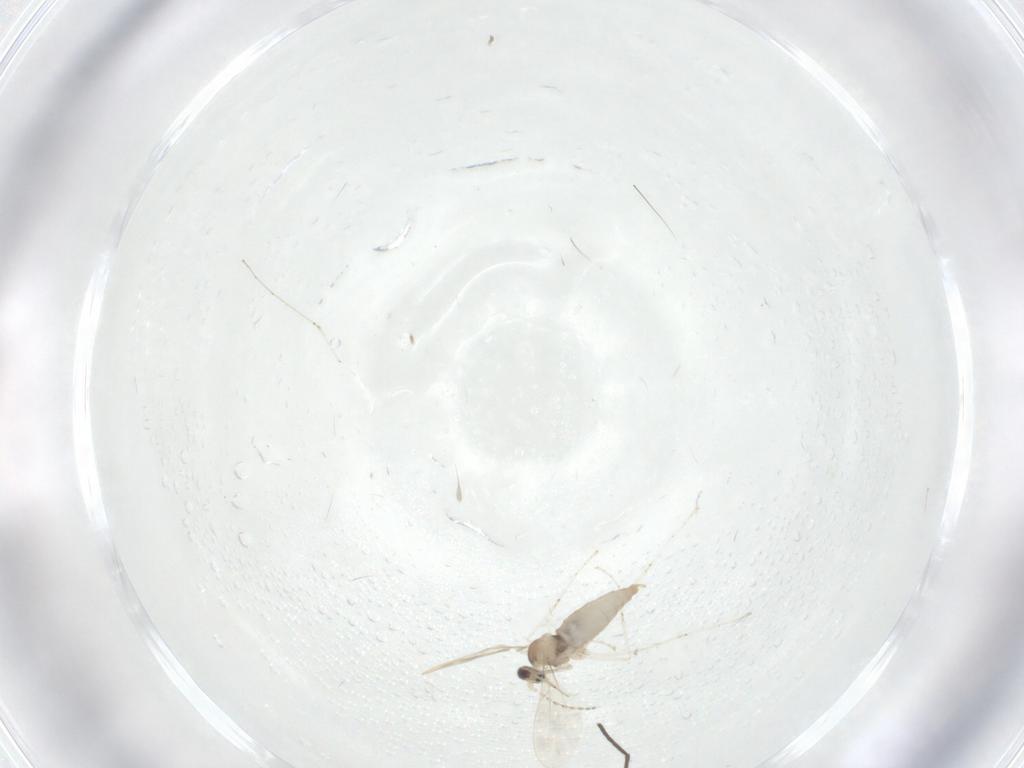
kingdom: Animalia
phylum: Arthropoda
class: Insecta
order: Diptera
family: Cecidomyiidae
